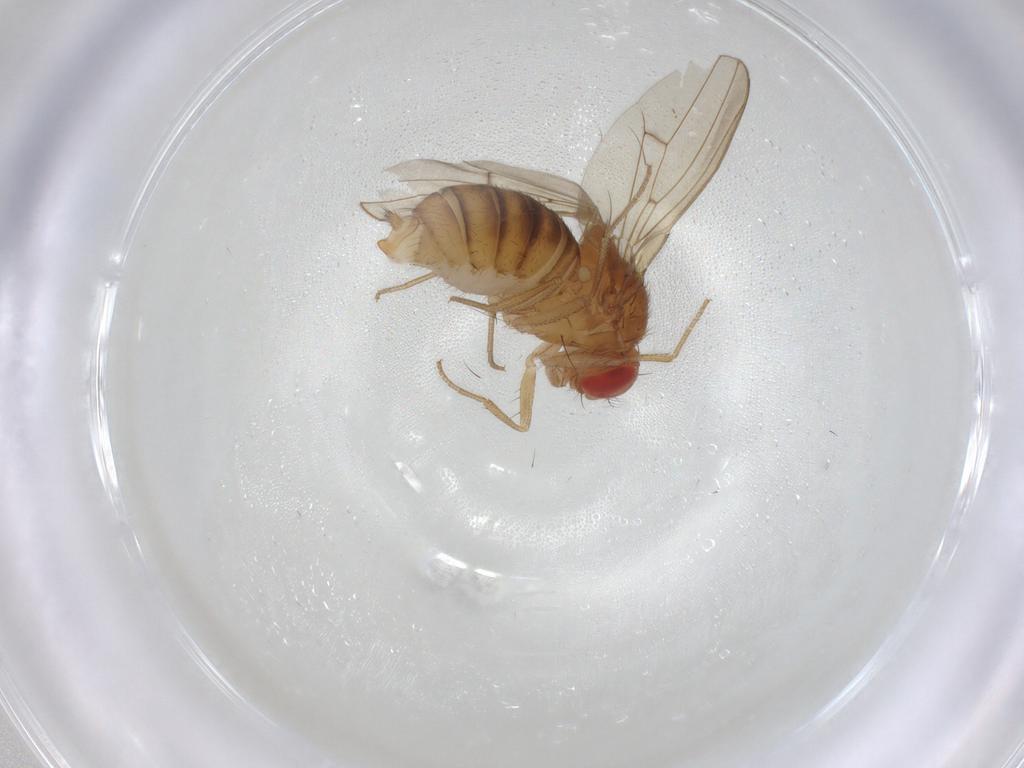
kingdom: Animalia
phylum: Arthropoda
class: Insecta
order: Diptera
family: Drosophilidae
